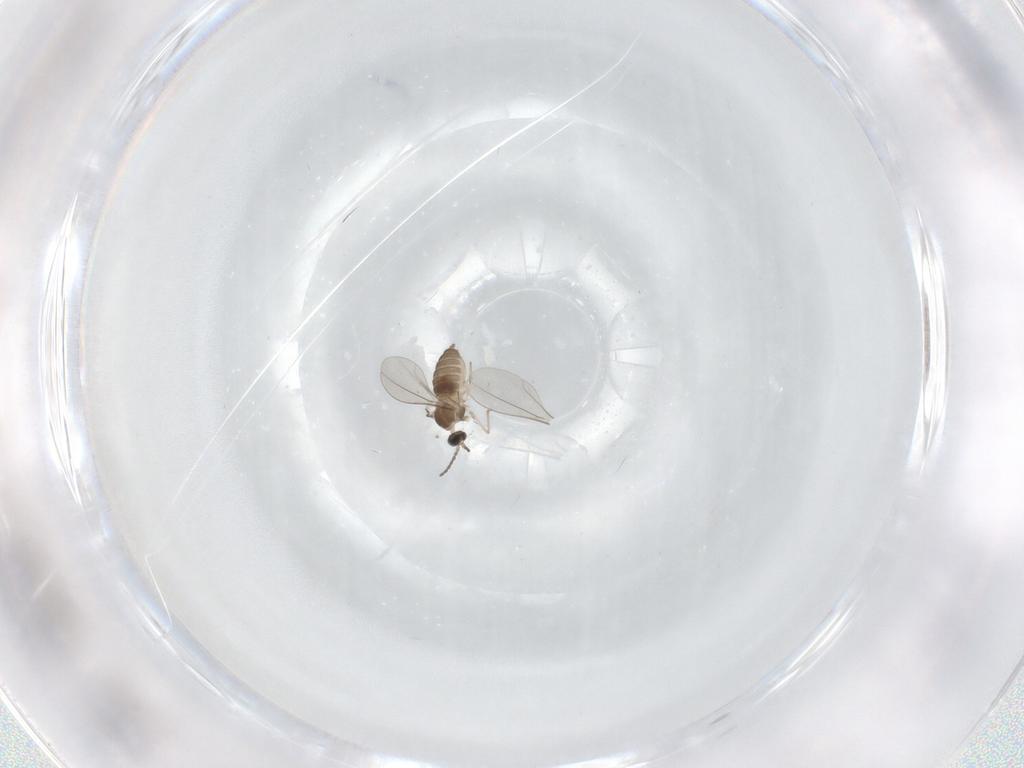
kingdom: Animalia
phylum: Arthropoda
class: Insecta
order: Diptera
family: Cecidomyiidae
